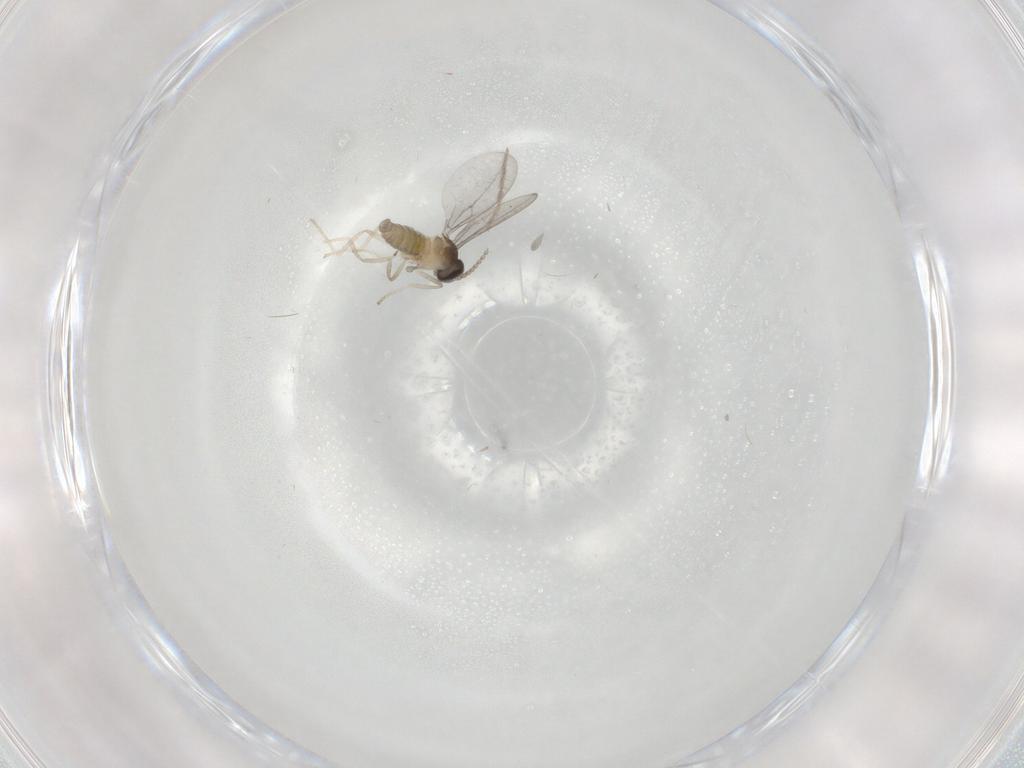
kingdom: Animalia
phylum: Arthropoda
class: Insecta
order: Diptera
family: Cecidomyiidae
